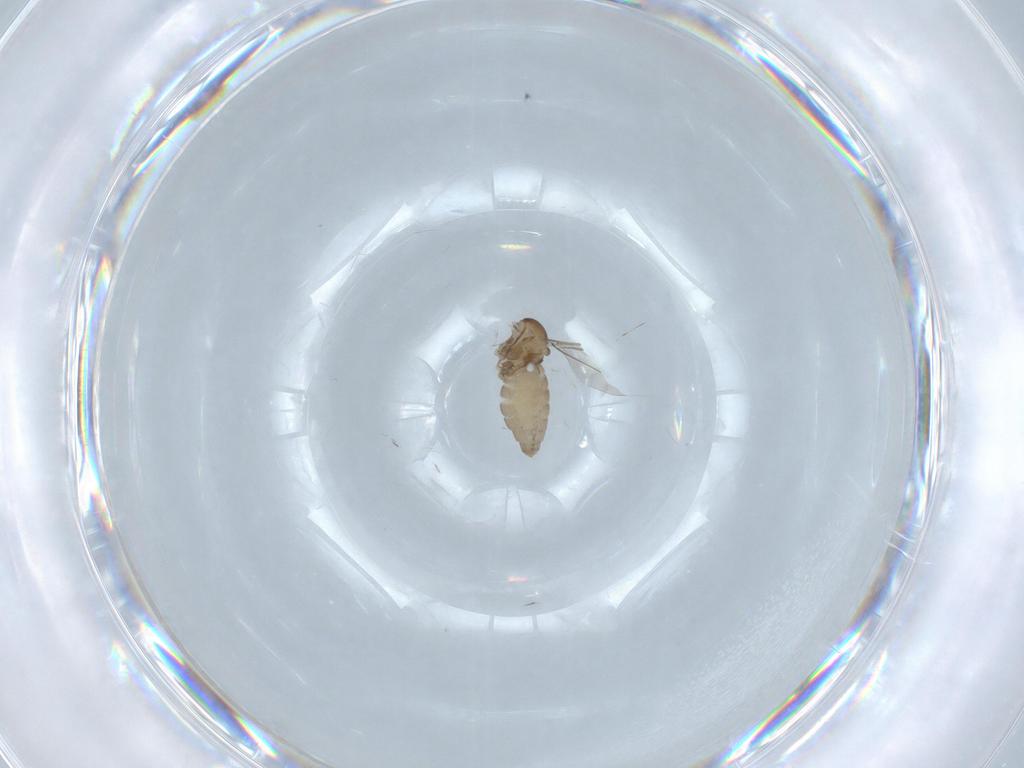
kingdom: Animalia
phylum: Arthropoda
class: Insecta
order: Diptera
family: Cecidomyiidae
